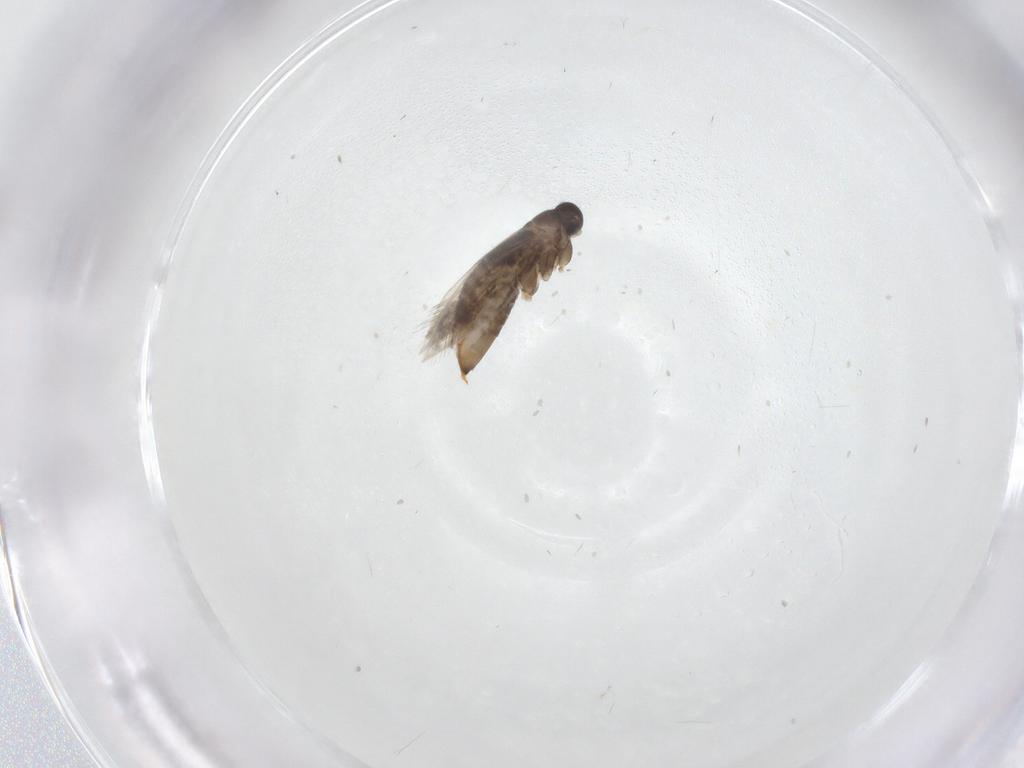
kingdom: Animalia
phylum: Arthropoda
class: Insecta
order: Lepidoptera
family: Heliozelidae
